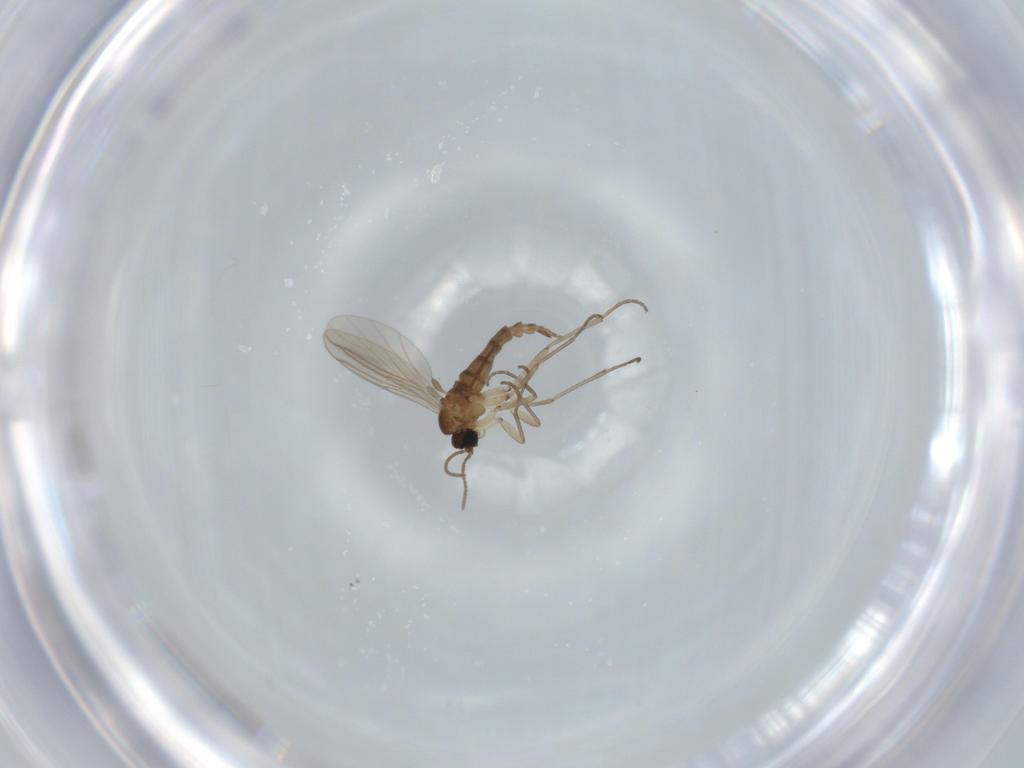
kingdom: Animalia
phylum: Arthropoda
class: Insecta
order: Diptera
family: Sciaridae
